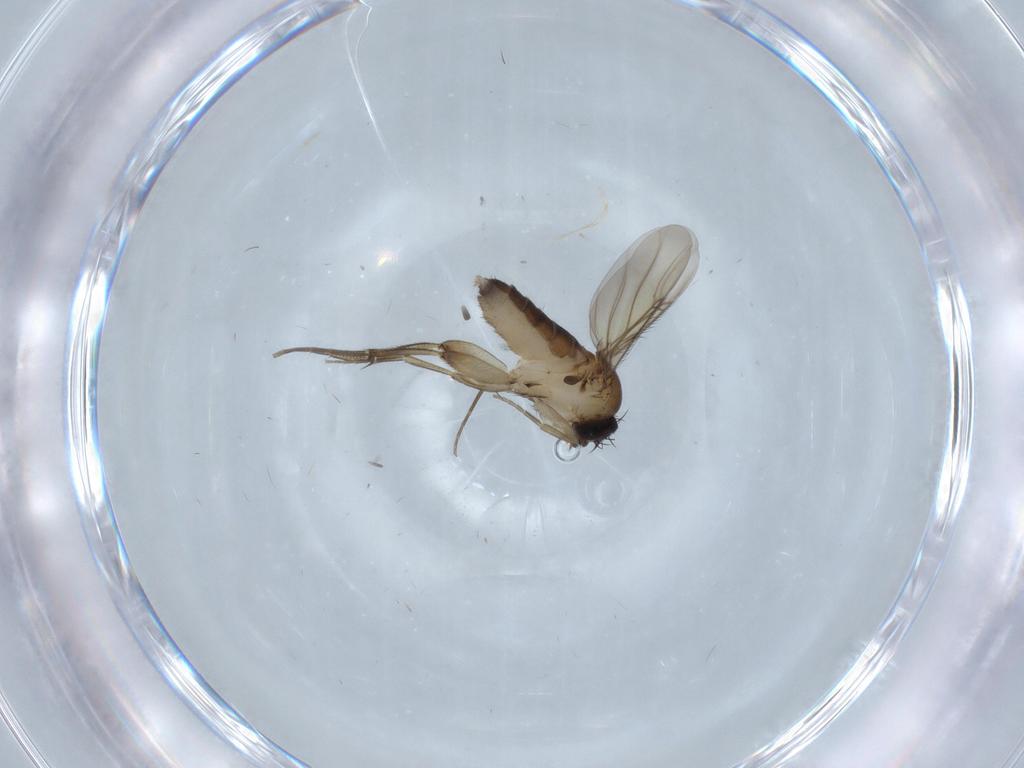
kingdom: Animalia
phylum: Arthropoda
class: Insecta
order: Diptera
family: Phoridae
